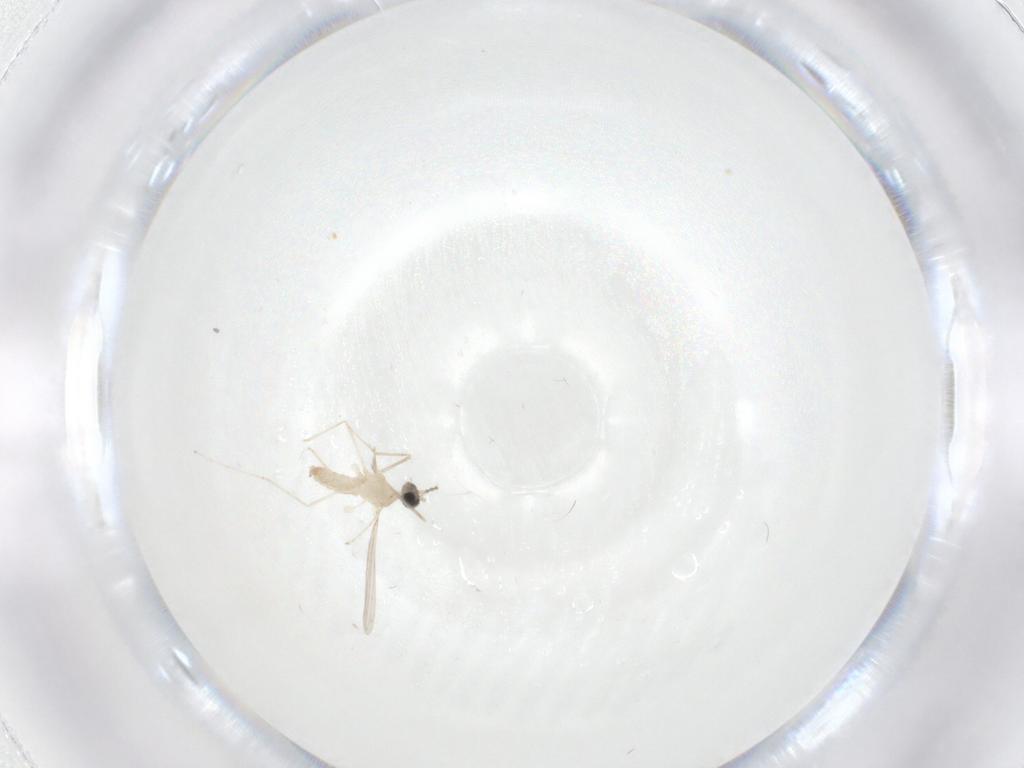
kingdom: Animalia
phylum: Arthropoda
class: Insecta
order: Diptera
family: Cecidomyiidae
